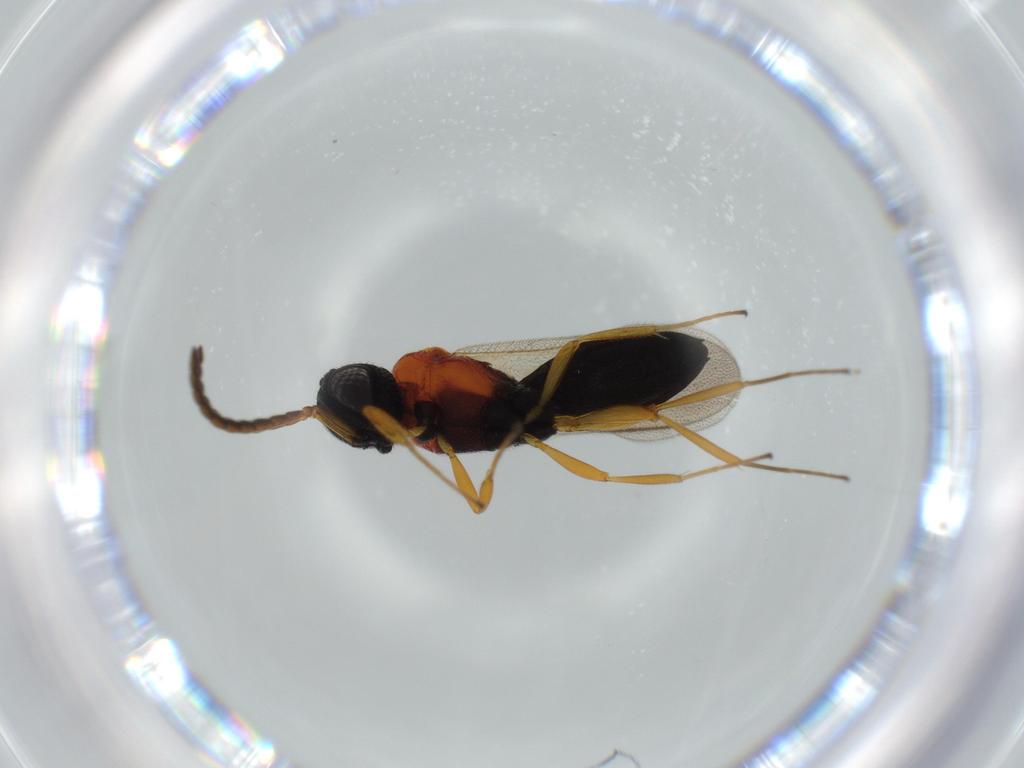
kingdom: Animalia
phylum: Arthropoda
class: Insecta
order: Hymenoptera
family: Scelionidae
